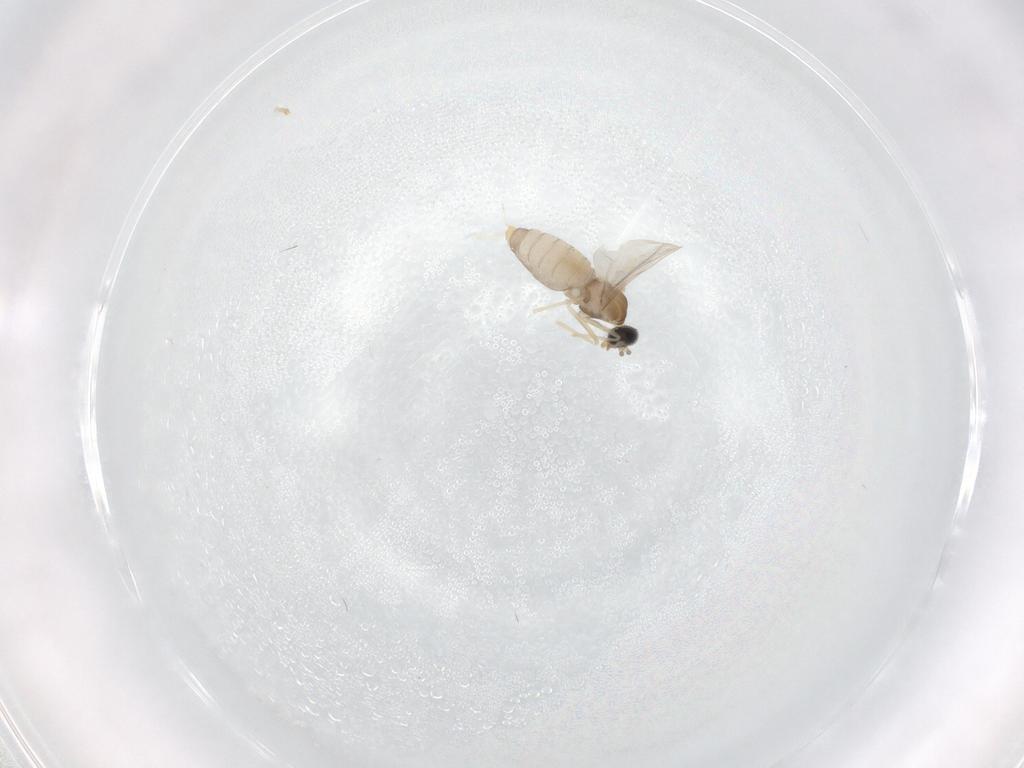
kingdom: Animalia
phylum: Arthropoda
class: Insecta
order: Diptera
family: Cecidomyiidae
